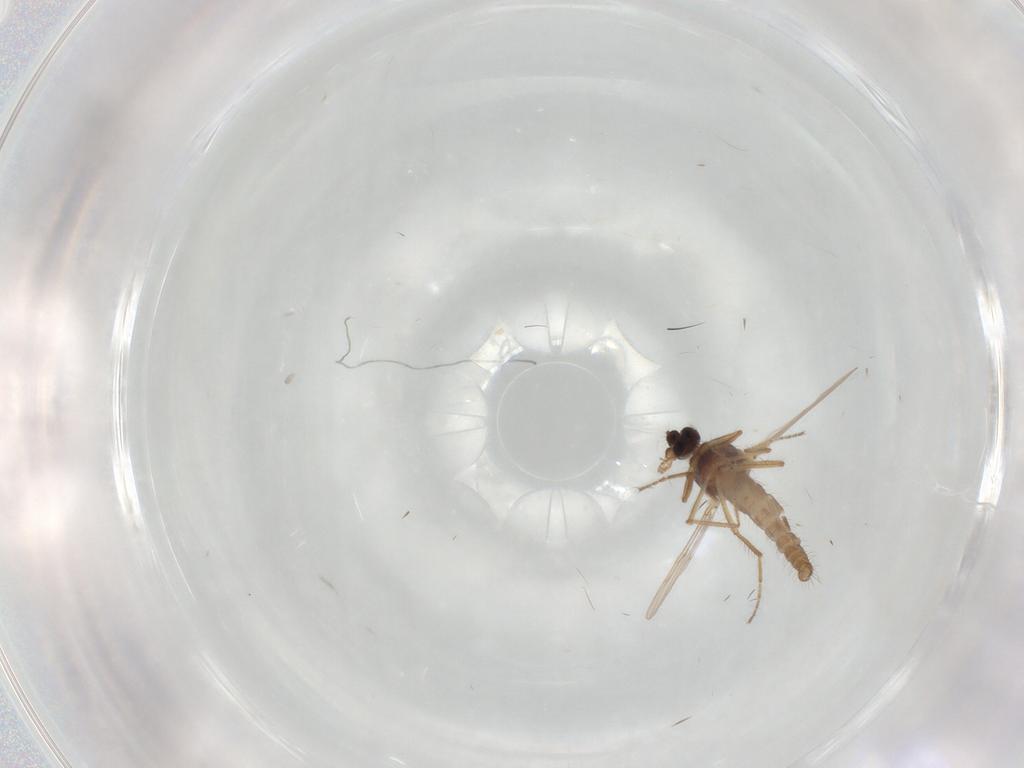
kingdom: Animalia
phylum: Arthropoda
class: Insecta
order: Diptera
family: Ceratopogonidae
